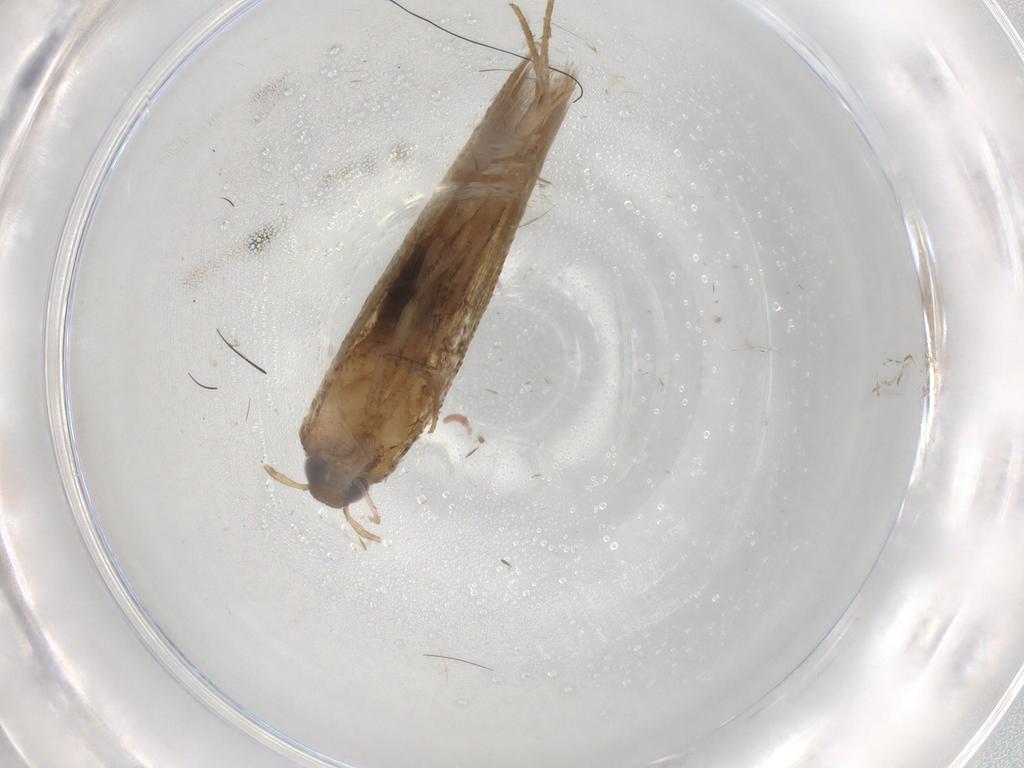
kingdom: Animalia
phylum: Arthropoda
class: Insecta
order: Lepidoptera
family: Cosmopterigidae
